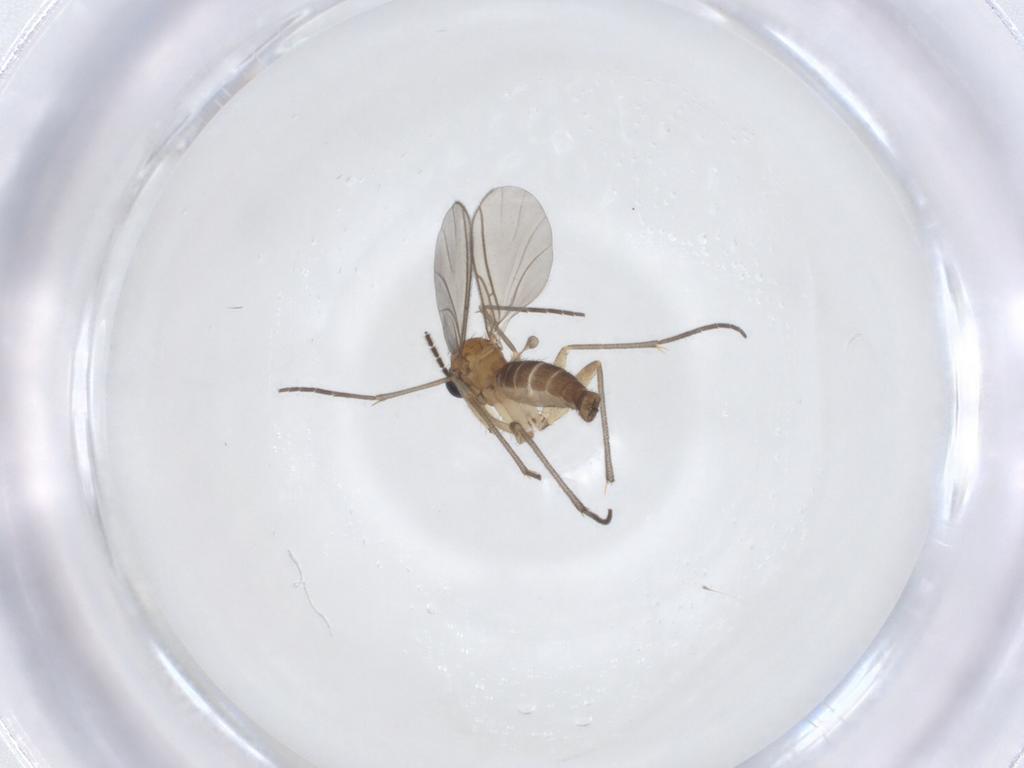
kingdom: Animalia
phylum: Arthropoda
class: Insecta
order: Diptera
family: Sciaridae
